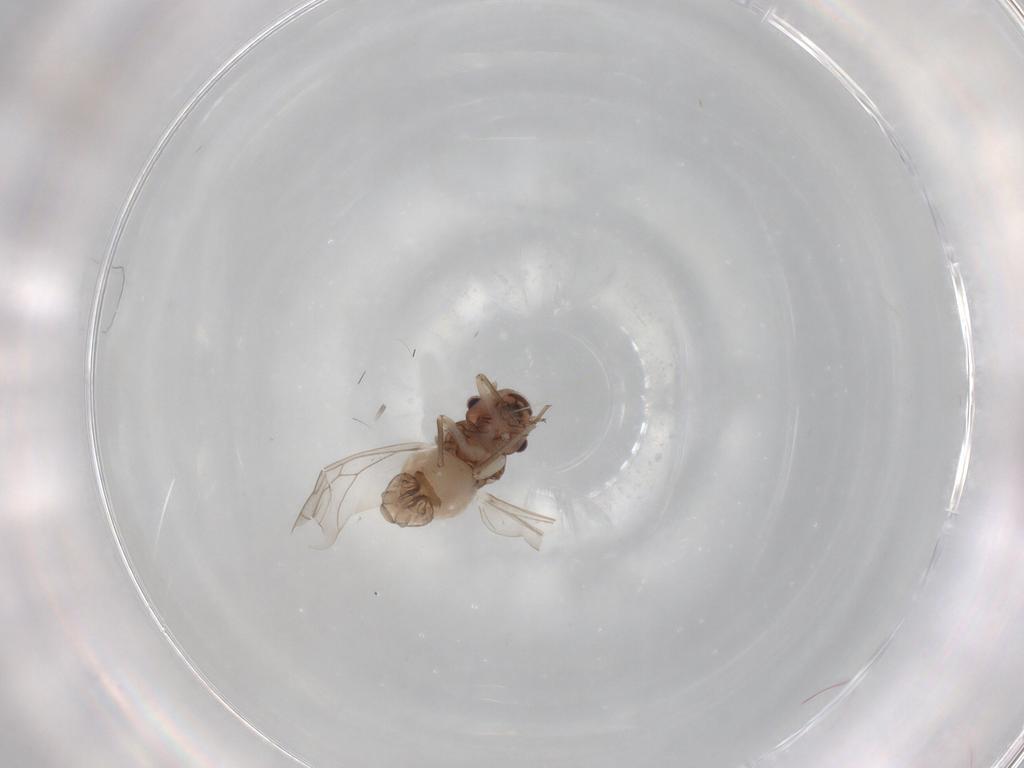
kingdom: Animalia
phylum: Arthropoda
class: Insecta
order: Psocodea
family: Peripsocidae
